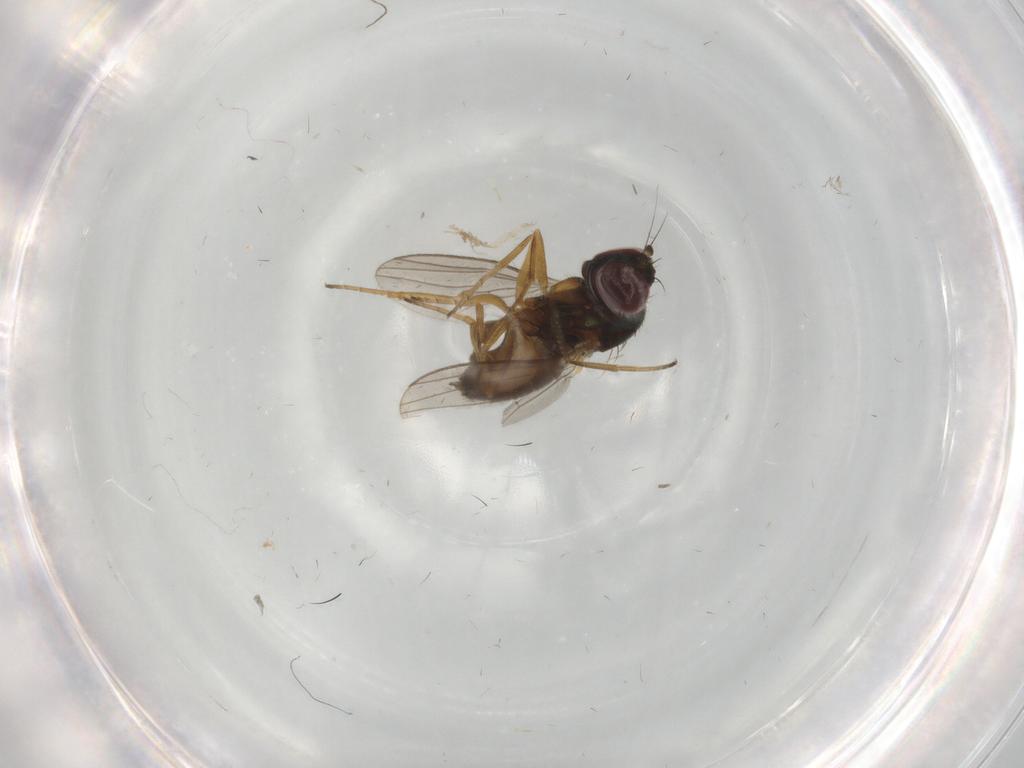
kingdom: Animalia
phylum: Arthropoda
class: Insecta
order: Diptera
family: Dolichopodidae
